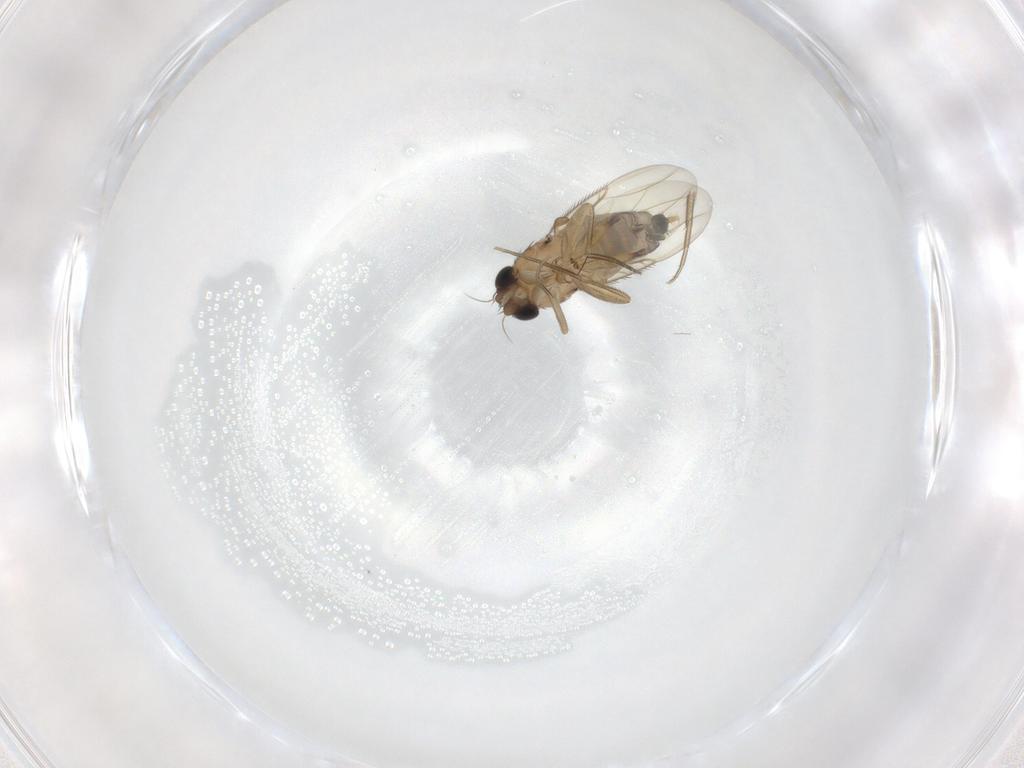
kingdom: Animalia
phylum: Arthropoda
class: Insecta
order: Diptera
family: Phoridae
